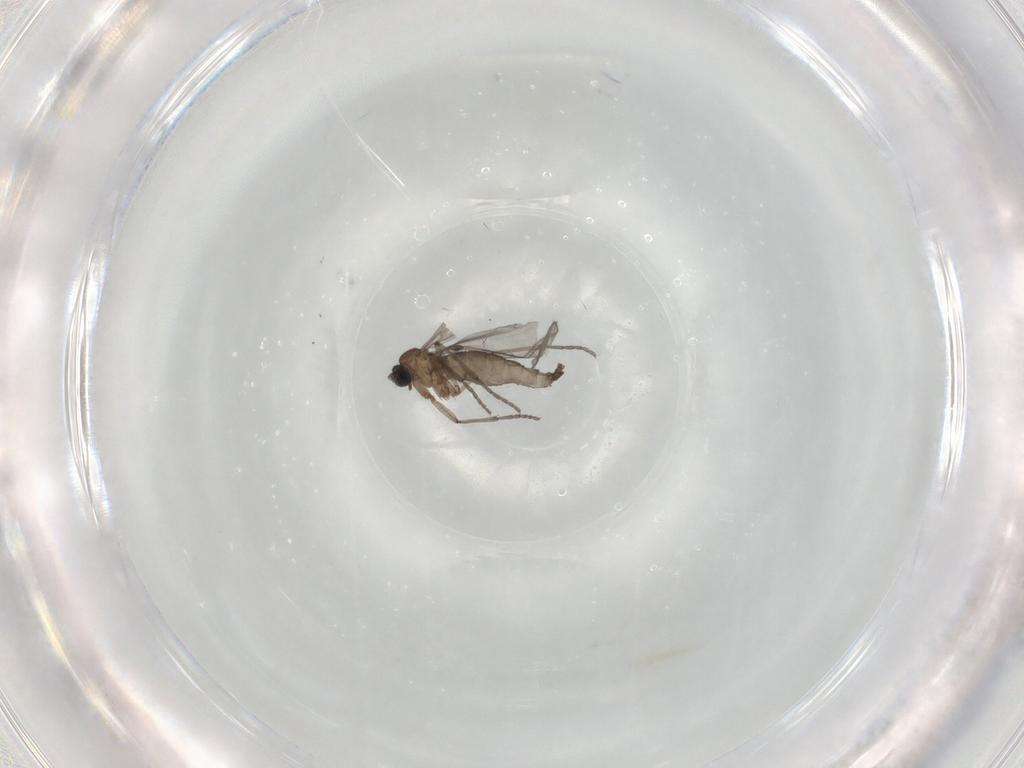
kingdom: Animalia
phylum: Arthropoda
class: Insecta
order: Diptera
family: Sciaridae
